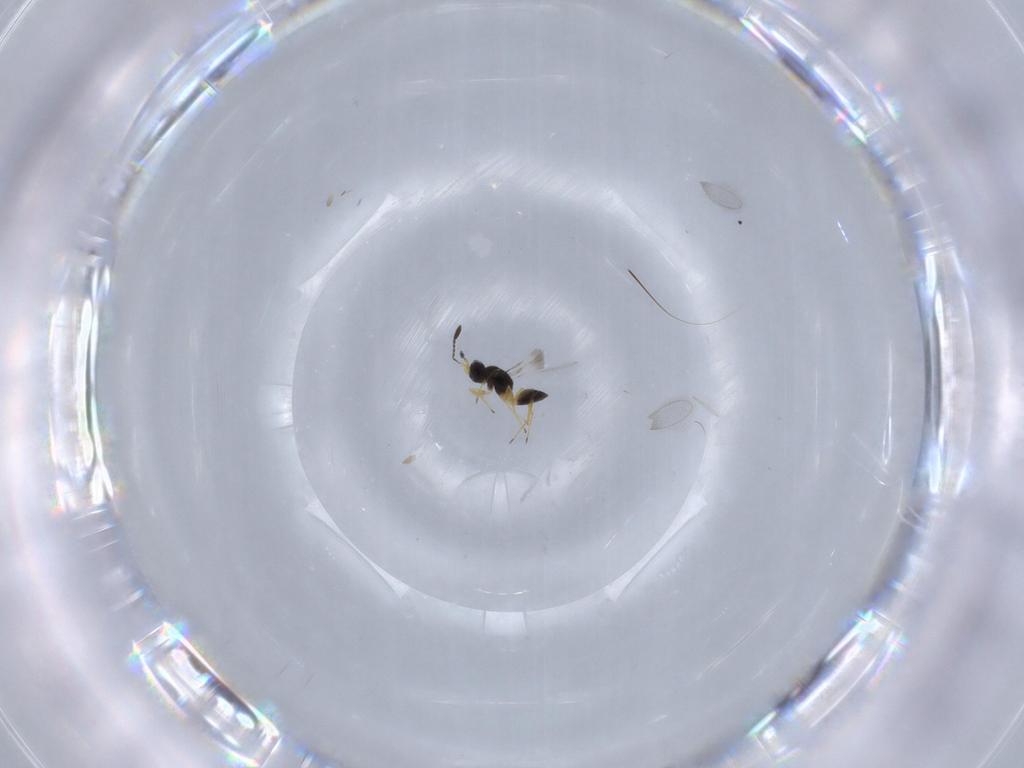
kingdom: Animalia
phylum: Arthropoda
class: Insecta
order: Hymenoptera
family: Mymaridae
